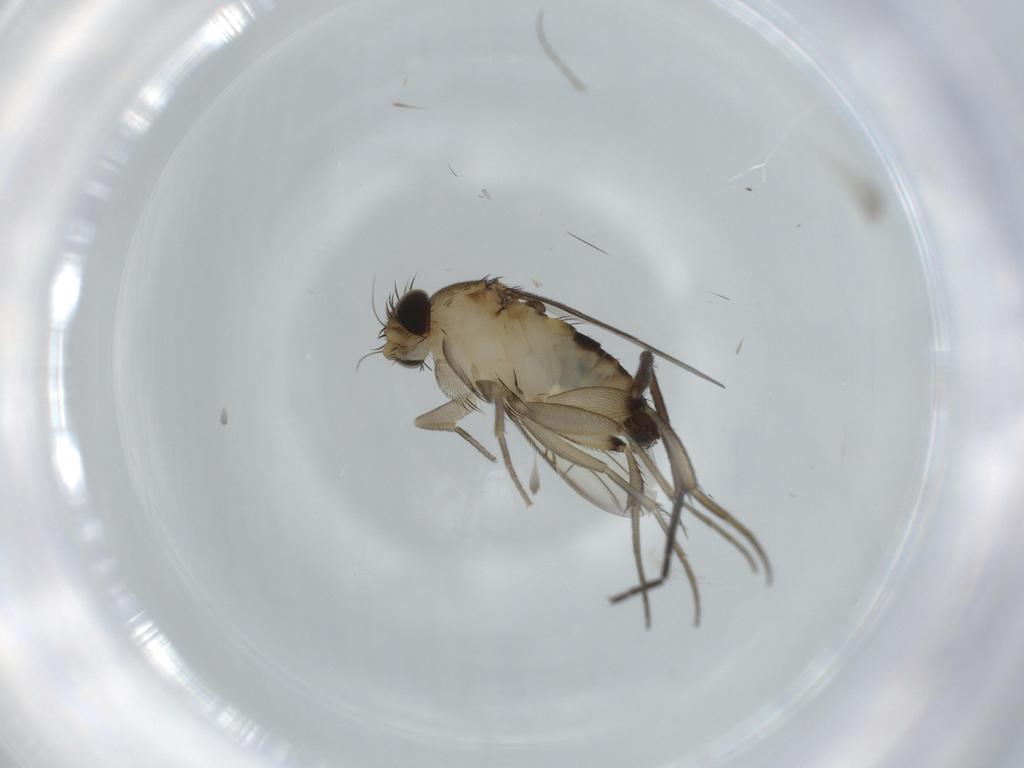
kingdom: Animalia
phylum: Arthropoda
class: Insecta
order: Diptera
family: Phoridae
